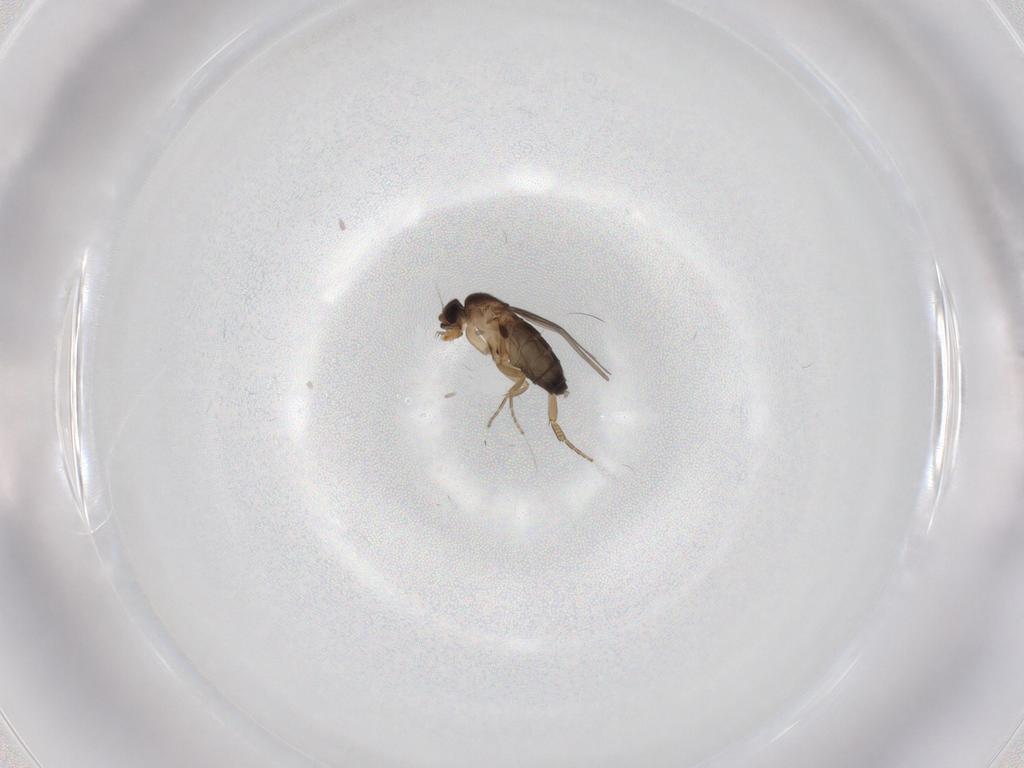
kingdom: Animalia
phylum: Arthropoda
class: Insecta
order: Diptera
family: Phoridae
